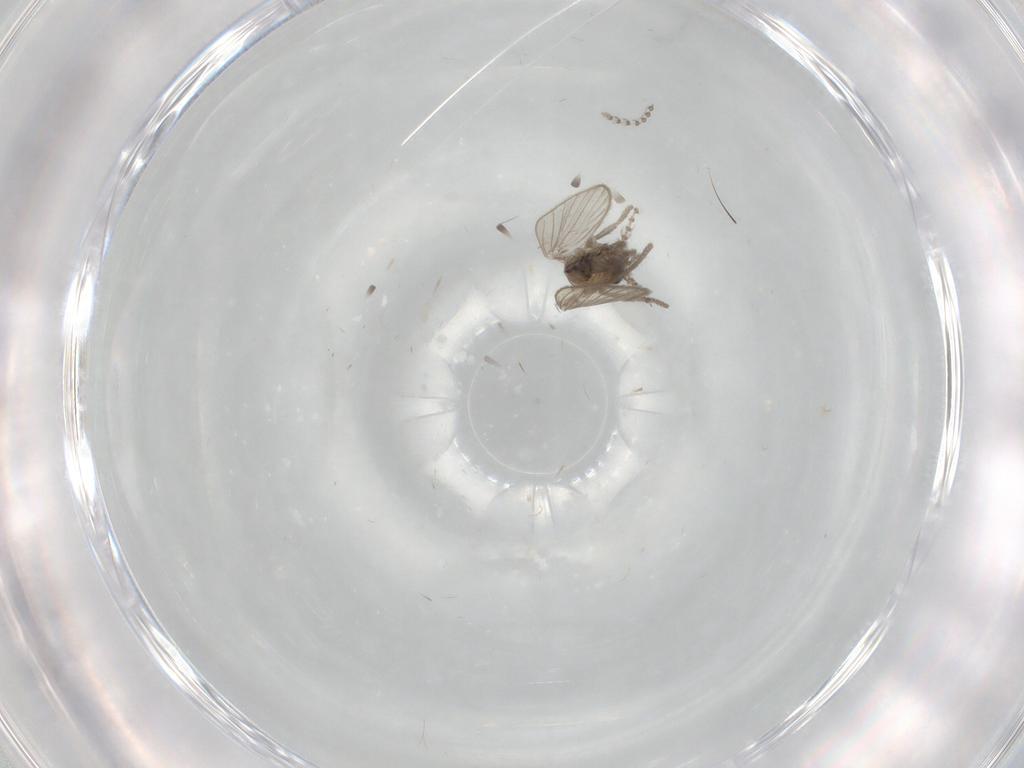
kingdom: Animalia
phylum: Arthropoda
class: Insecta
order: Diptera
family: Psychodidae
